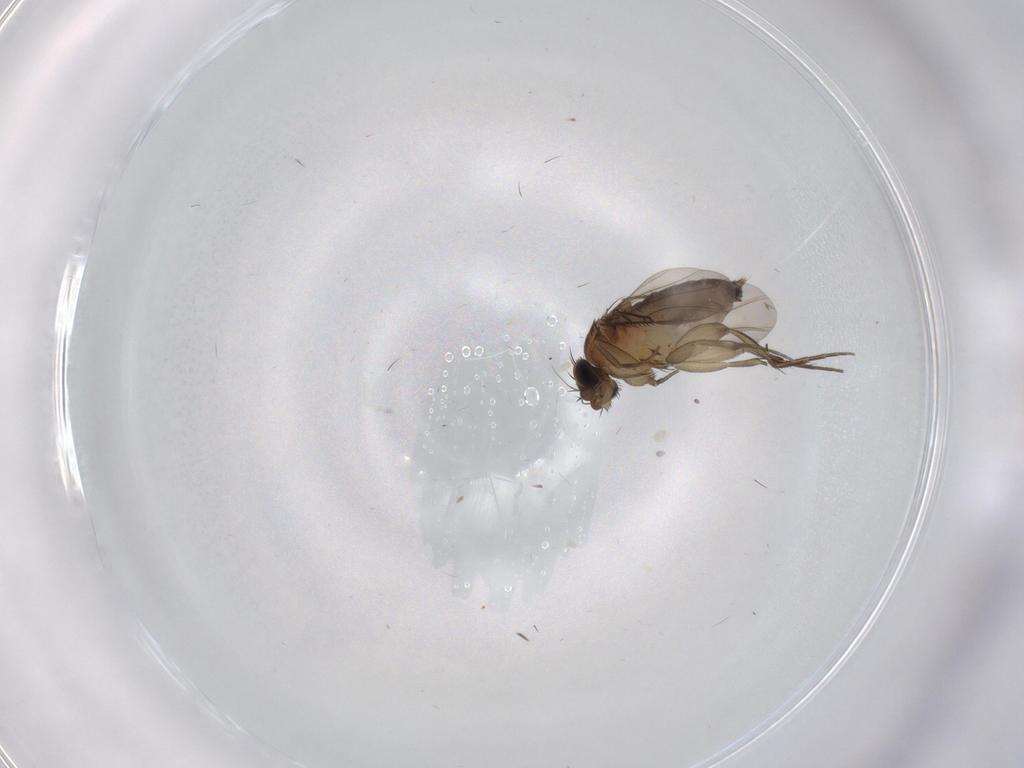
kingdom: Animalia
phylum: Arthropoda
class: Insecta
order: Diptera
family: Phoridae
